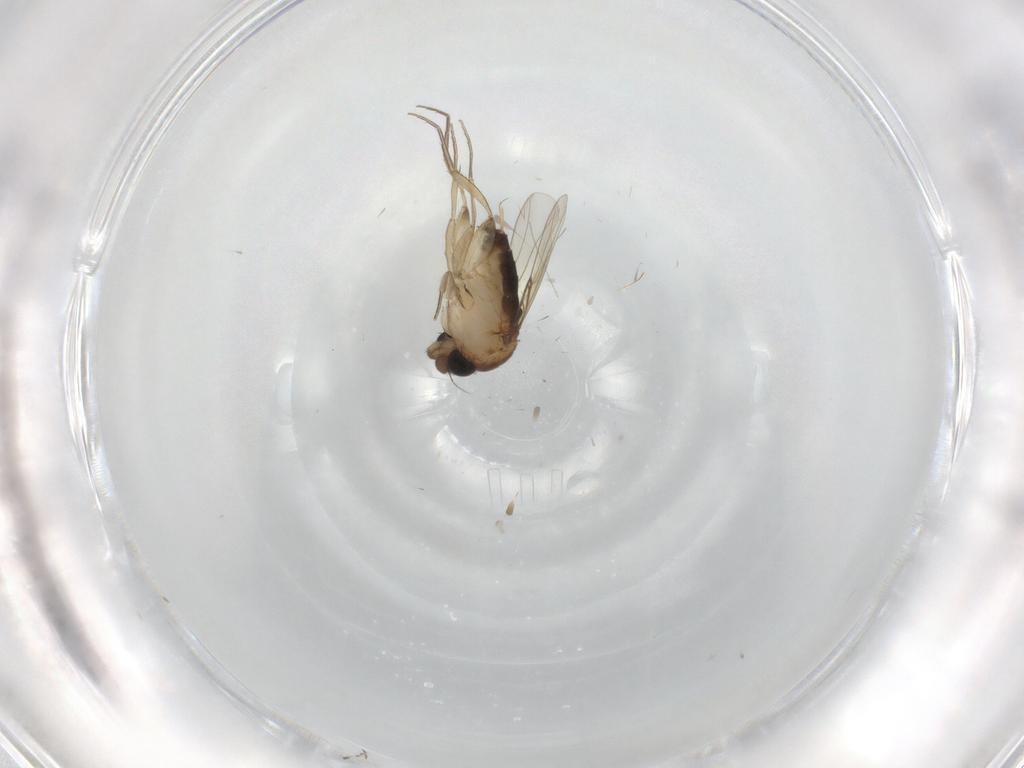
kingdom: Animalia
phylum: Arthropoda
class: Insecta
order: Diptera
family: Phoridae
